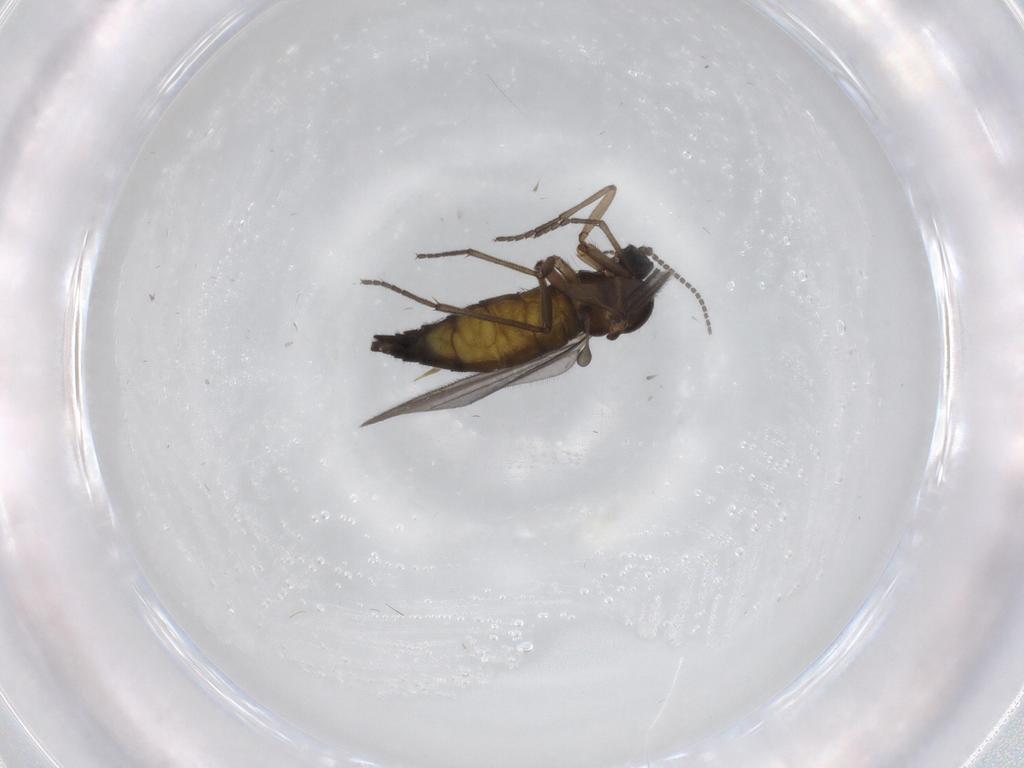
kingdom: Animalia
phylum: Arthropoda
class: Insecta
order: Diptera
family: Sciaridae
